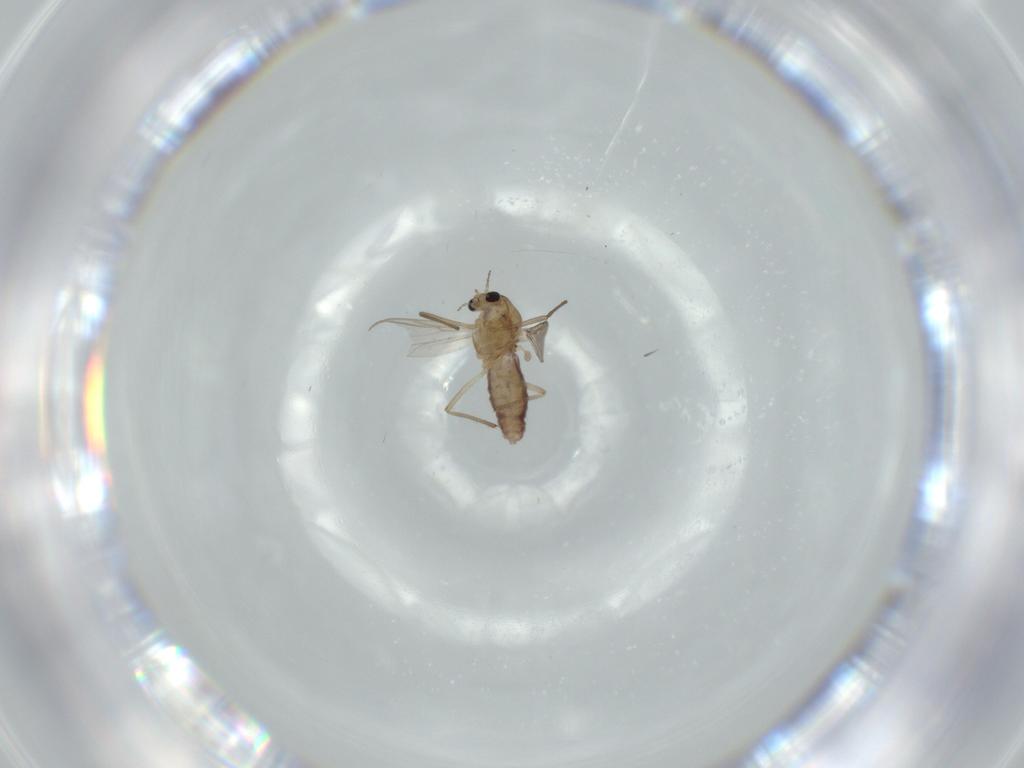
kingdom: Animalia
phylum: Arthropoda
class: Insecta
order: Diptera
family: Chironomidae
